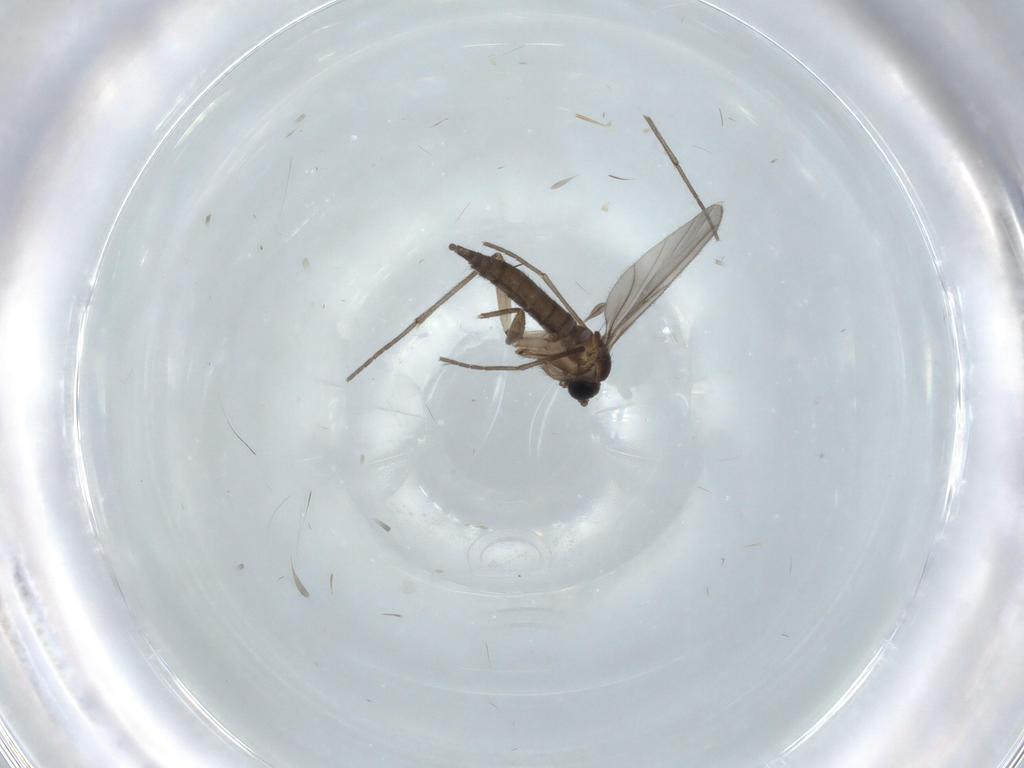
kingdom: Animalia
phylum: Arthropoda
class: Insecta
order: Diptera
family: Sciaridae
